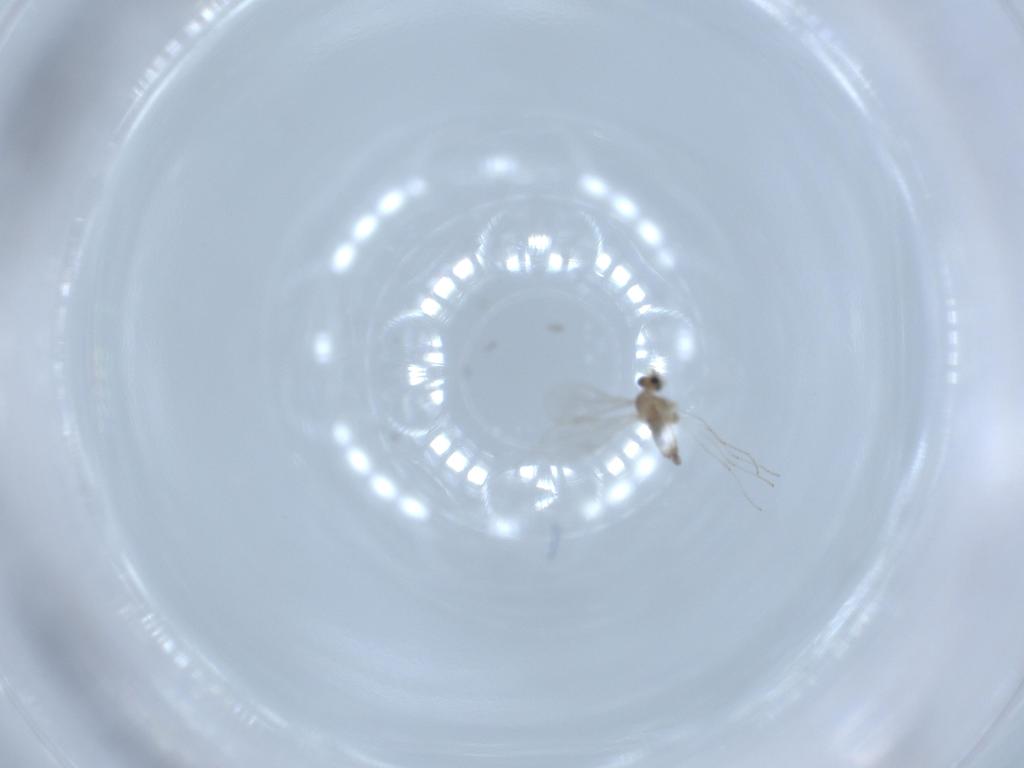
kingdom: Animalia
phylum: Arthropoda
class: Insecta
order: Diptera
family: Cecidomyiidae
